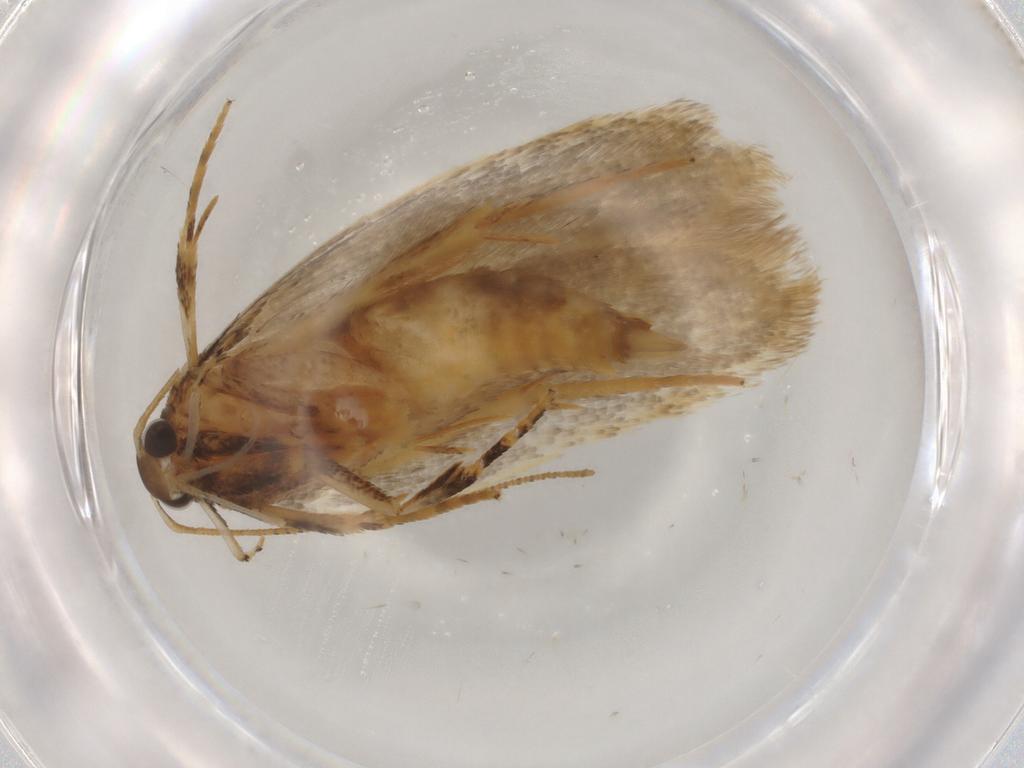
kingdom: Animalia
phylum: Arthropoda
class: Insecta
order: Lepidoptera
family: Gelechiidae
